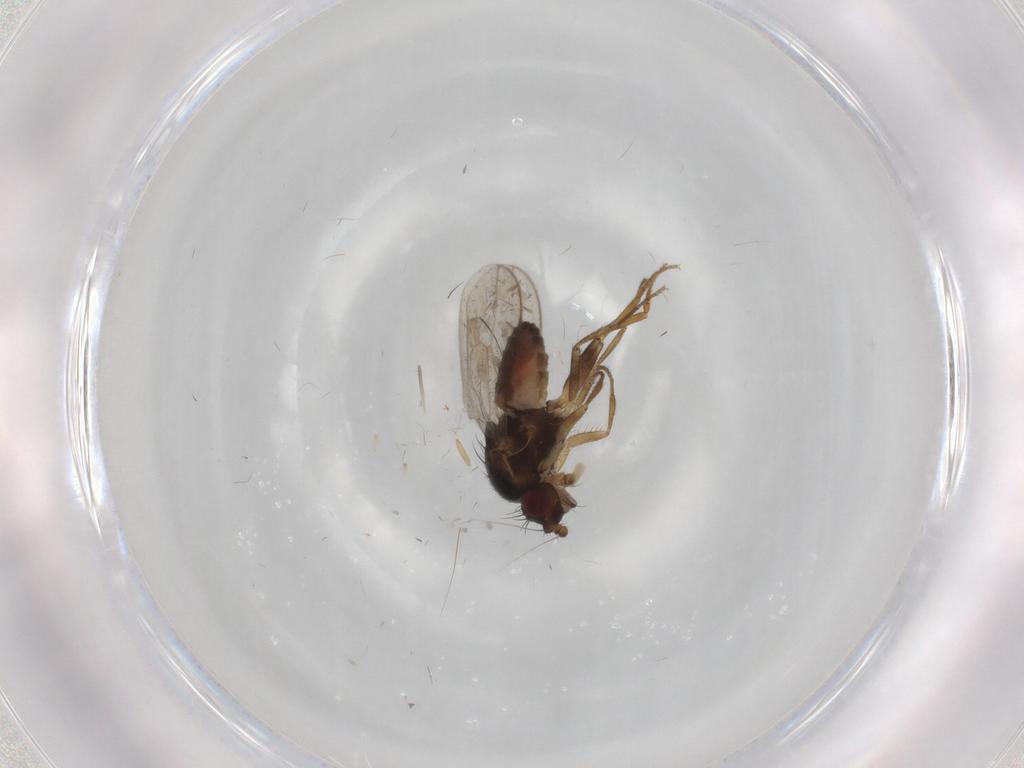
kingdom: Animalia
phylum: Arthropoda
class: Insecta
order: Diptera
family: Sphaeroceridae
